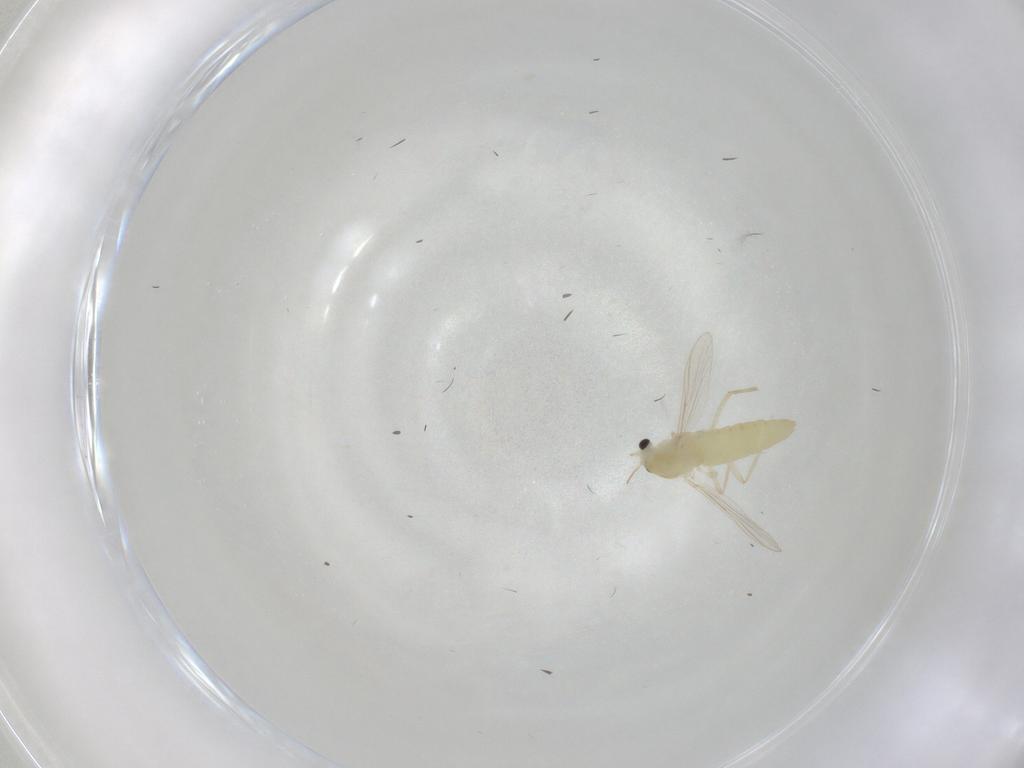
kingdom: Animalia
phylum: Arthropoda
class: Insecta
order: Diptera
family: Chironomidae
